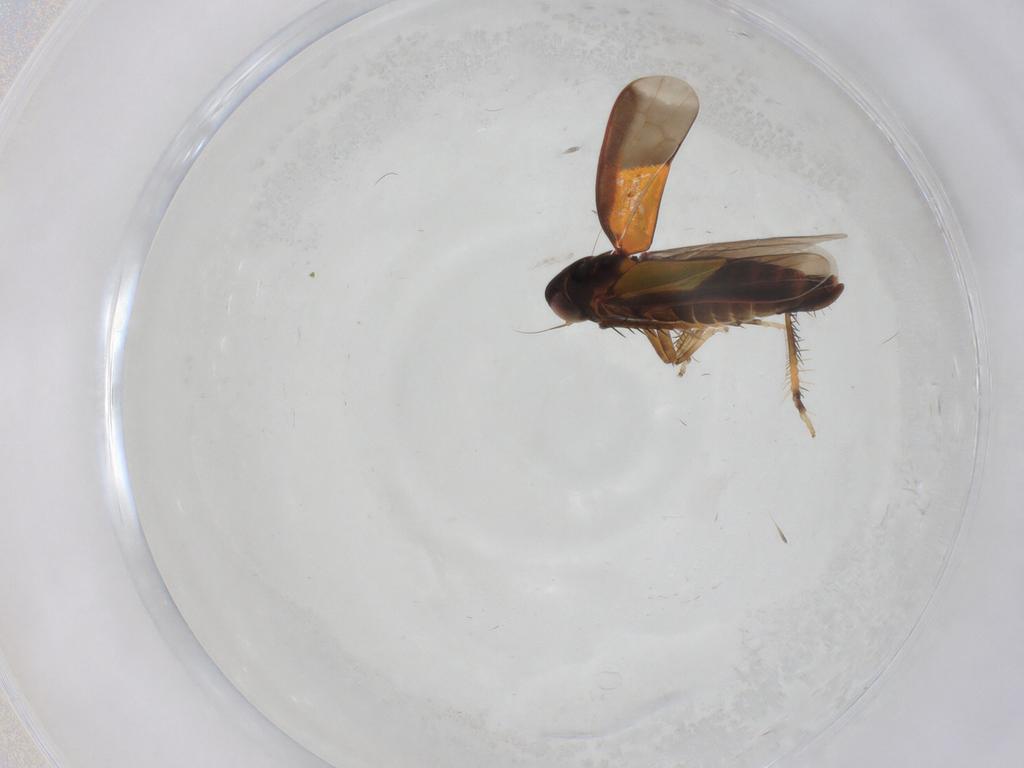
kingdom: Animalia
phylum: Arthropoda
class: Insecta
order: Hemiptera
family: Cicadellidae
